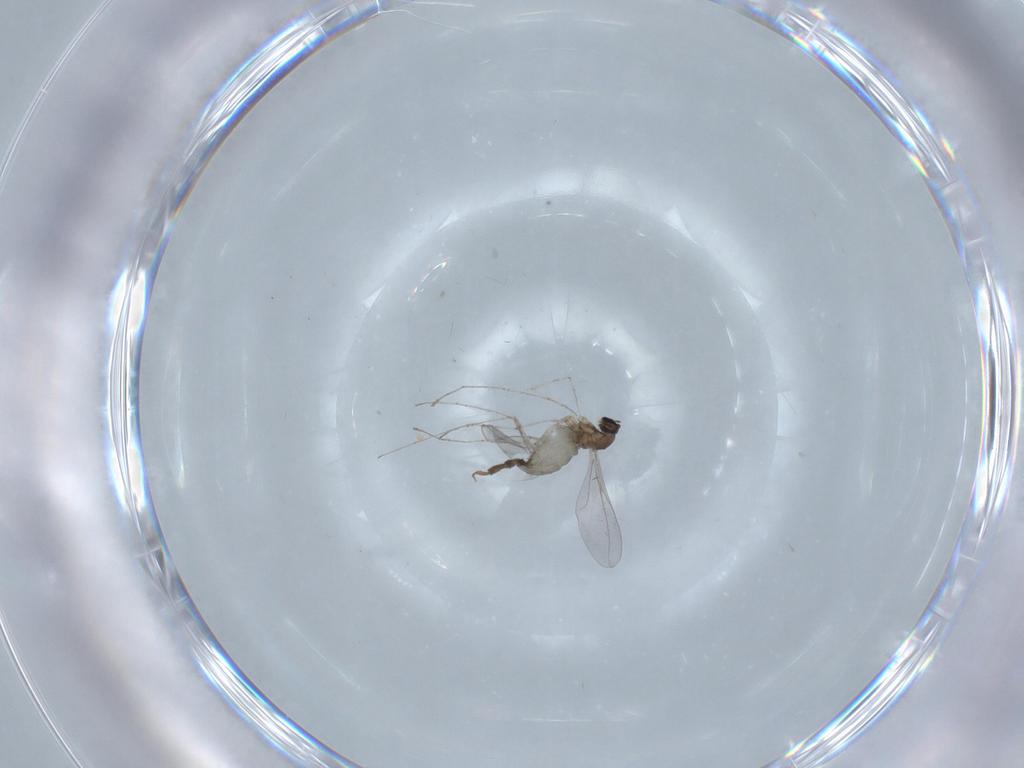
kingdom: Animalia
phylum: Arthropoda
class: Insecta
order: Diptera
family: Cecidomyiidae
